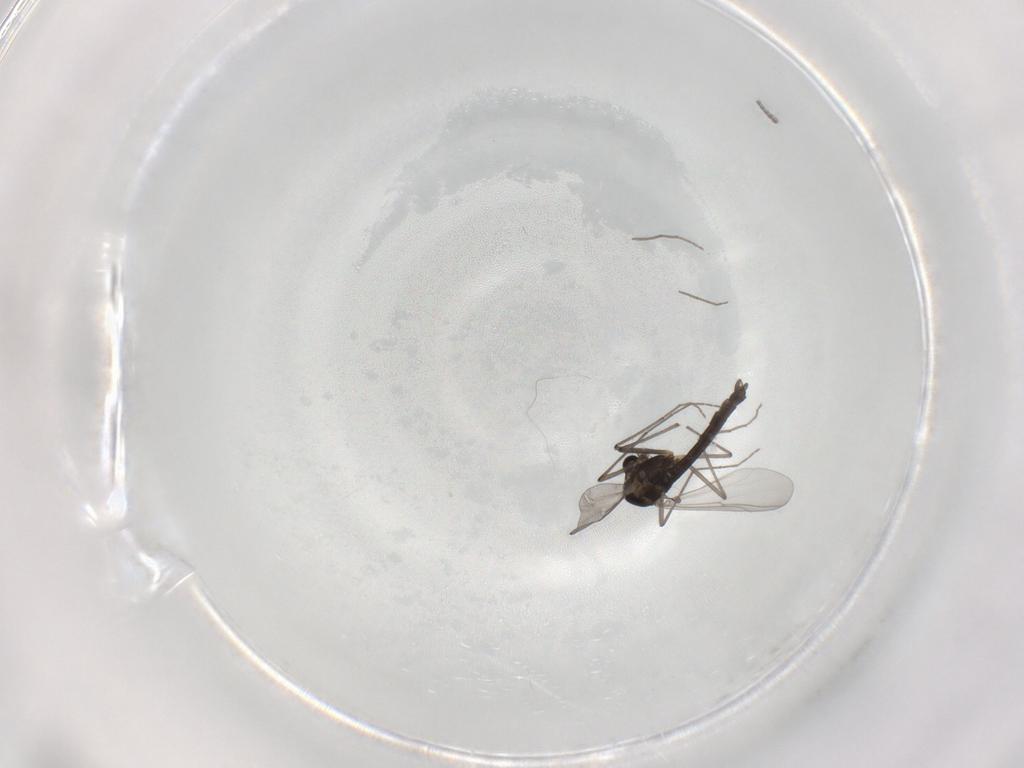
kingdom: Animalia
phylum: Arthropoda
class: Insecta
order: Diptera
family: Chironomidae
